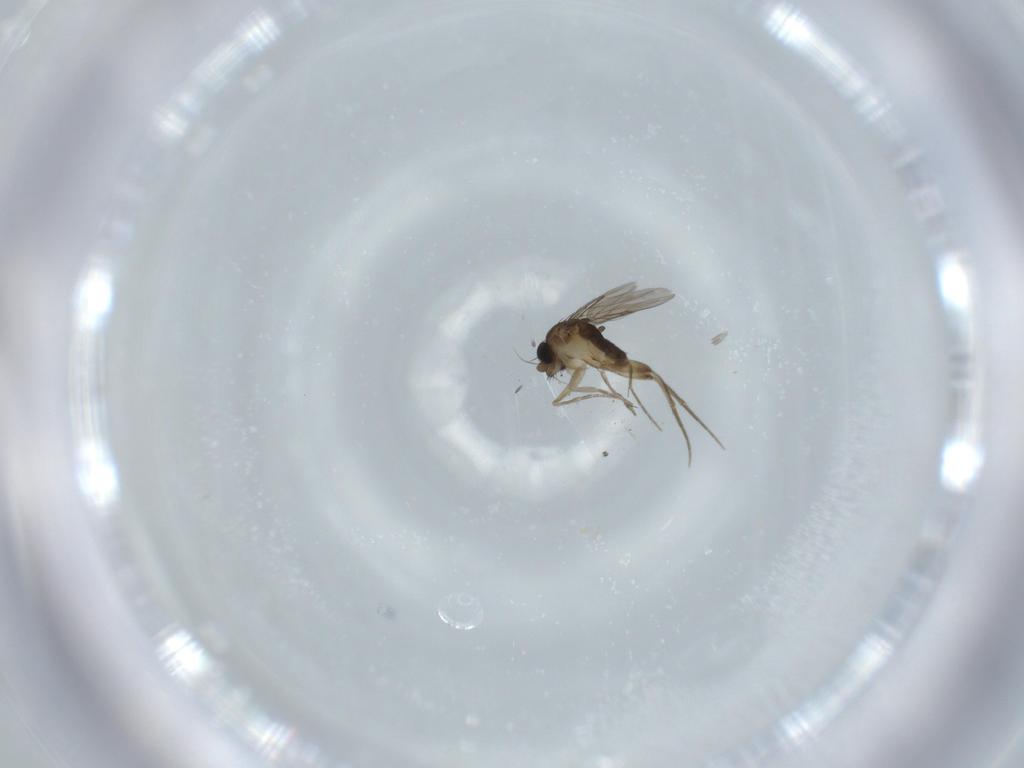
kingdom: Animalia
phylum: Arthropoda
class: Insecta
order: Diptera
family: Phoridae
